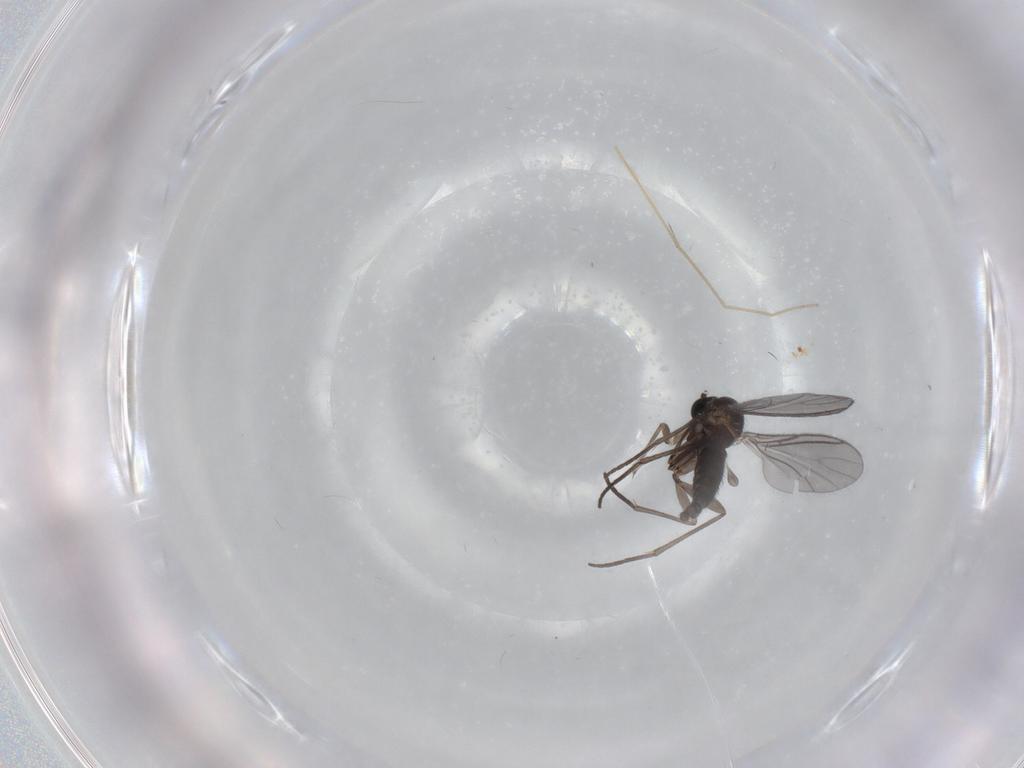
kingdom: Animalia
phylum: Arthropoda
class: Insecta
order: Diptera
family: Sciaridae
